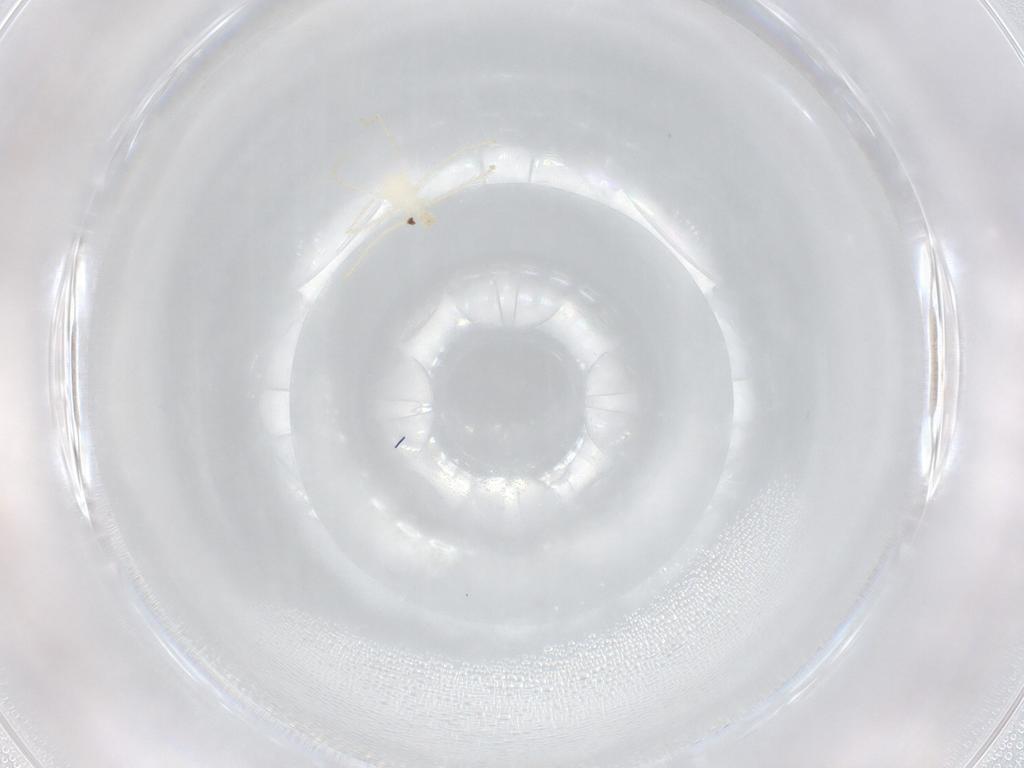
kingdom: Animalia
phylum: Arthropoda
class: Arachnida
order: Trombidiformes
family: Eupodidae
